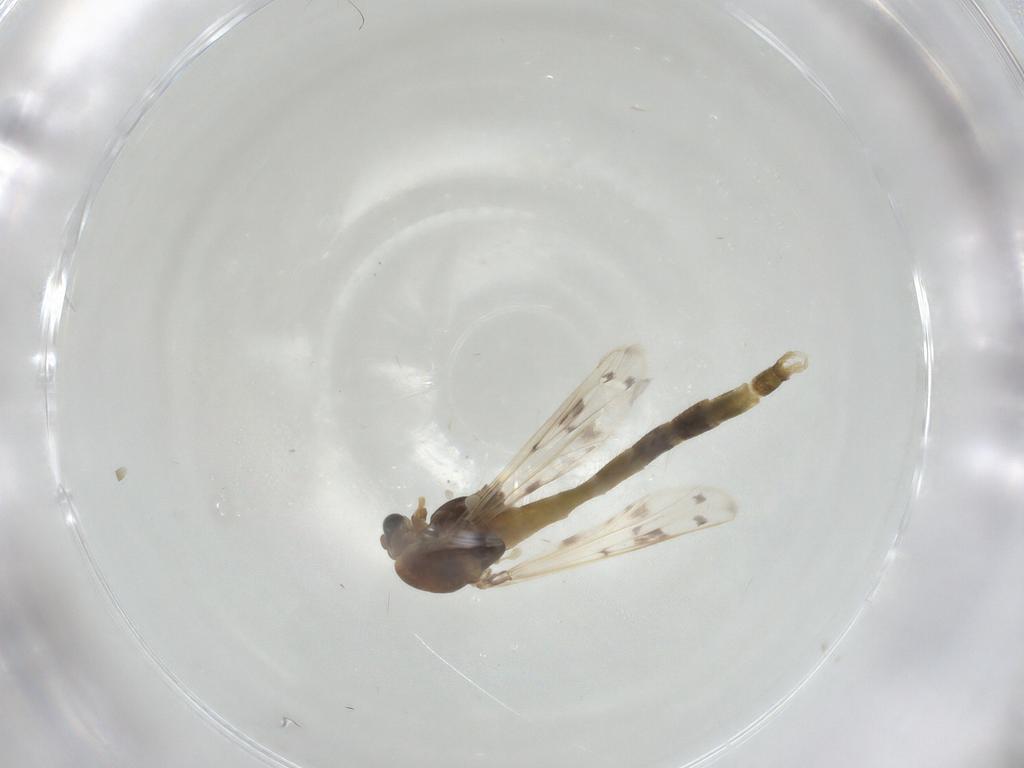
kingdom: Animalia
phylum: Arthropoda
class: Insecta
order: Diptera
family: Chironomidae
